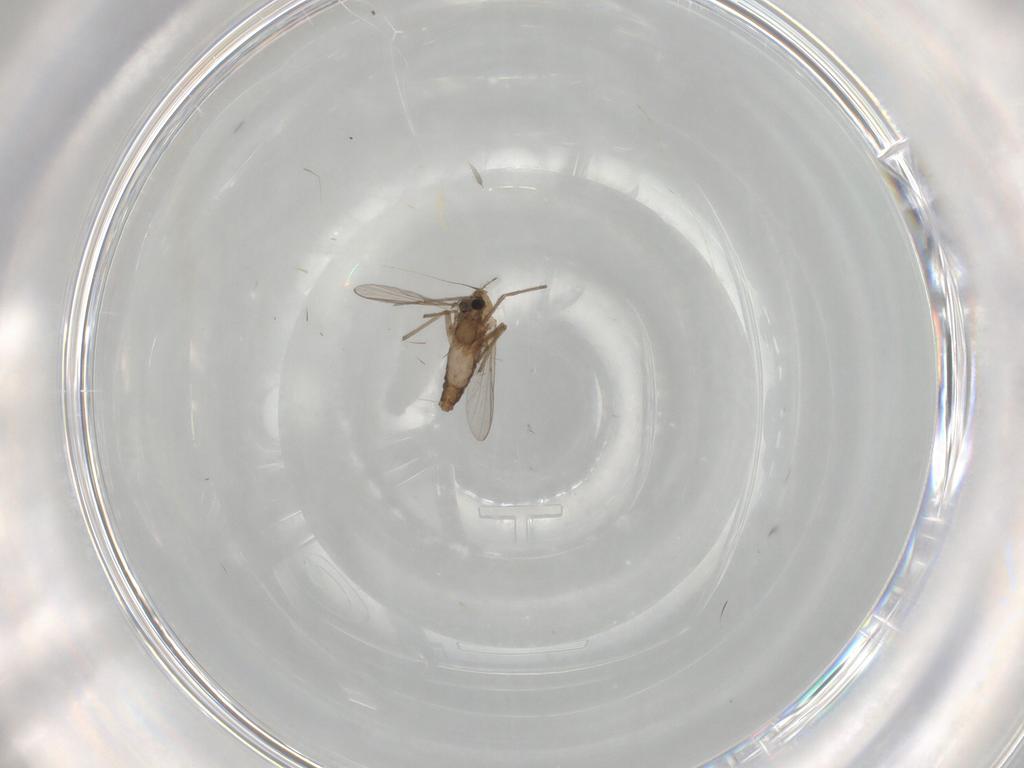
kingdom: Animalia
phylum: Arthropoda
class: Insecta
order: Diptera
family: Chironomidae
